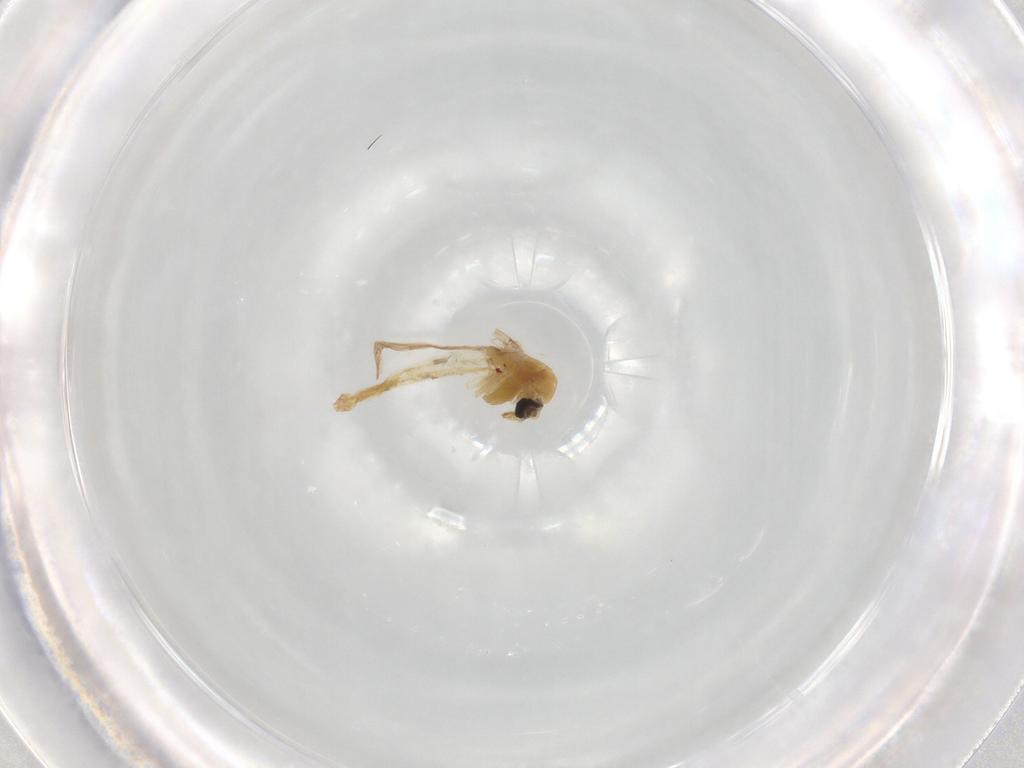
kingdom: Animalia
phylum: Arthropoda
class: Insecta
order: Diptera
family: Chironomidae
